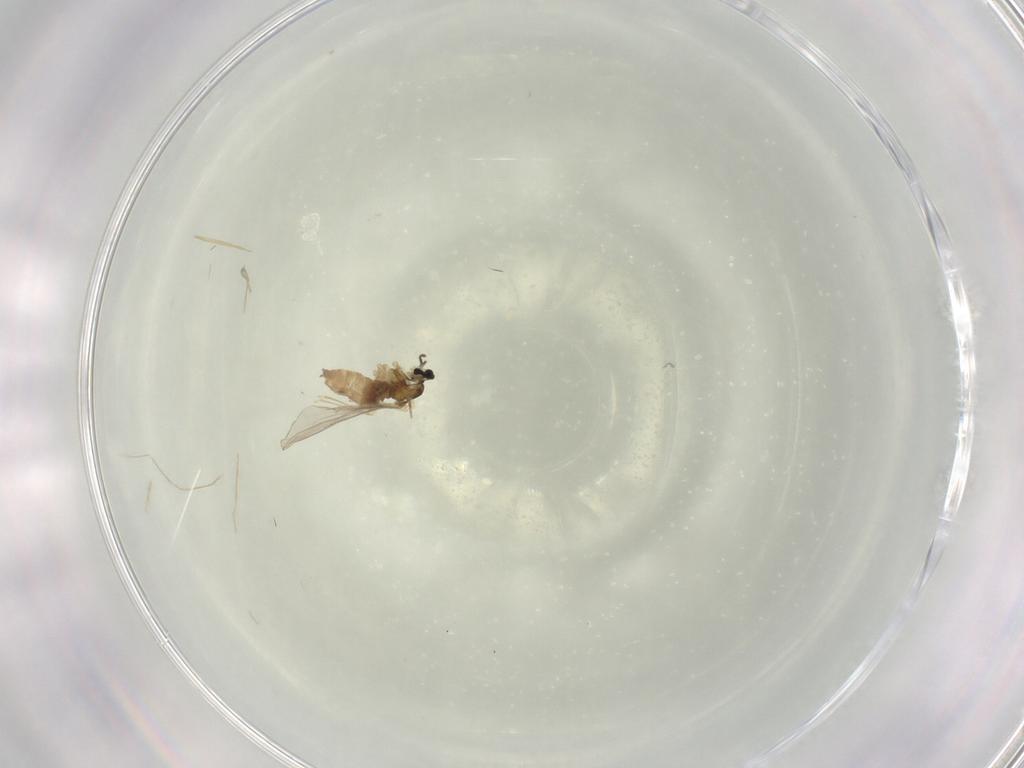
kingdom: Animalia
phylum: Arthropoda
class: Insecta
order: Diptera
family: Cecidomyiidae
